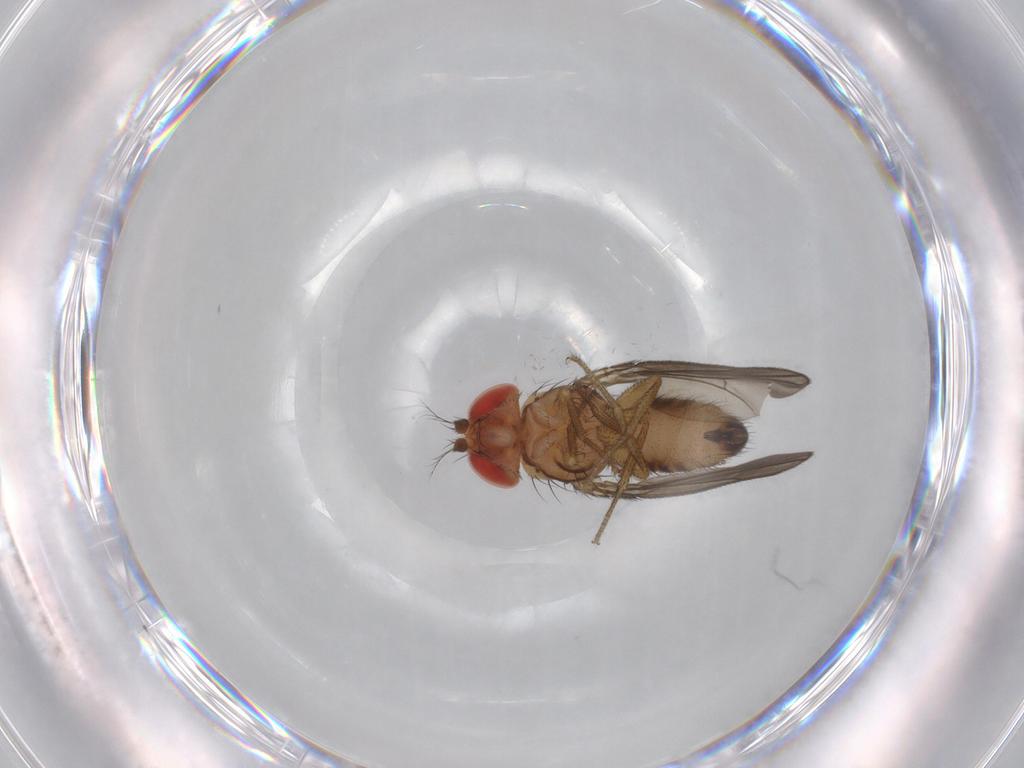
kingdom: Animalia
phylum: Arthropoda
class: Insecta
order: Diptera
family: Drosophilidae
